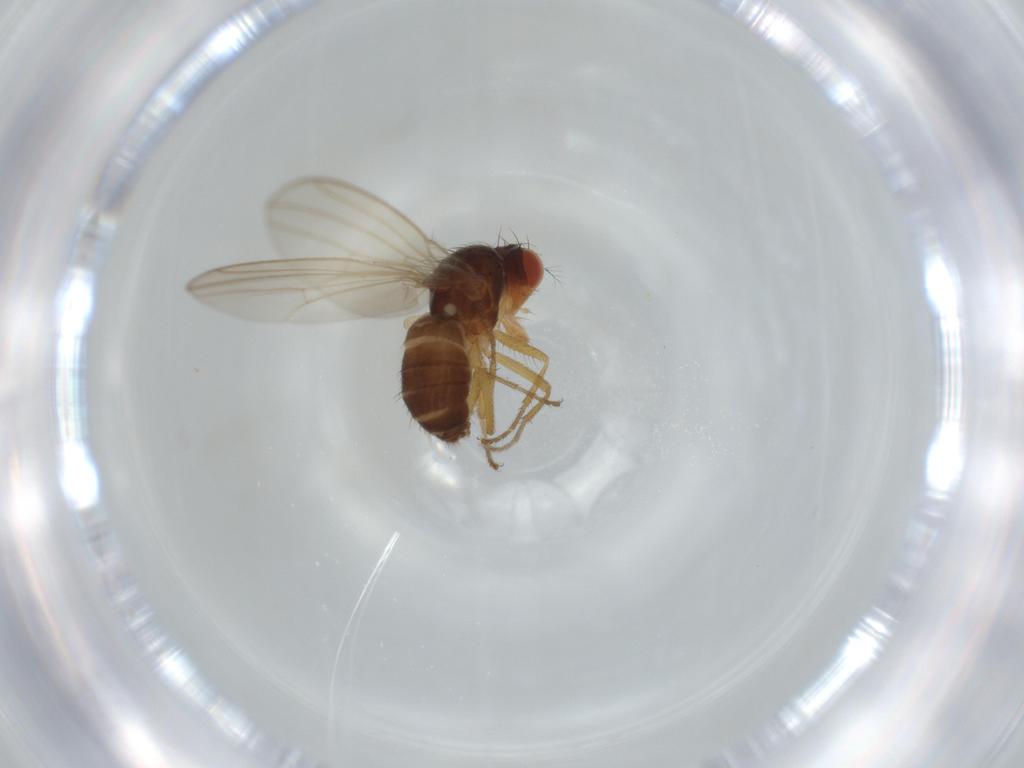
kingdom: Animalia
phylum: Arthropoda
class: Insecta
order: Diptera
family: Drosophilidae
